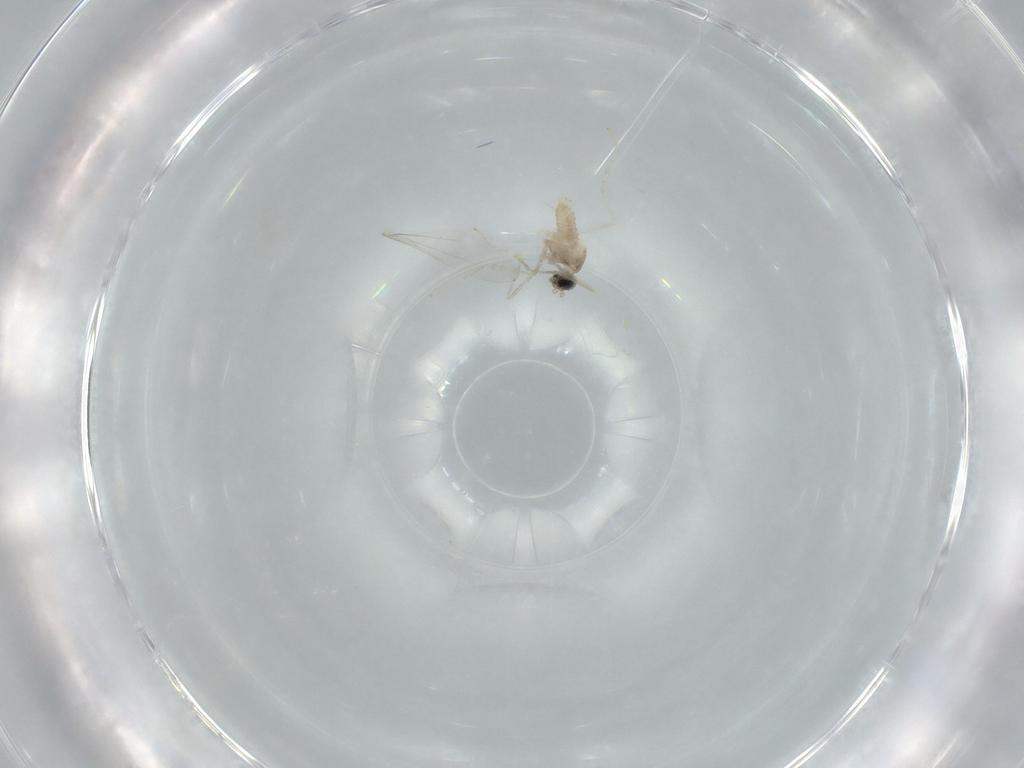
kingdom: Animalia
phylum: Arthropoda
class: Insecta
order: Diptera
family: Cecidomyiidae
